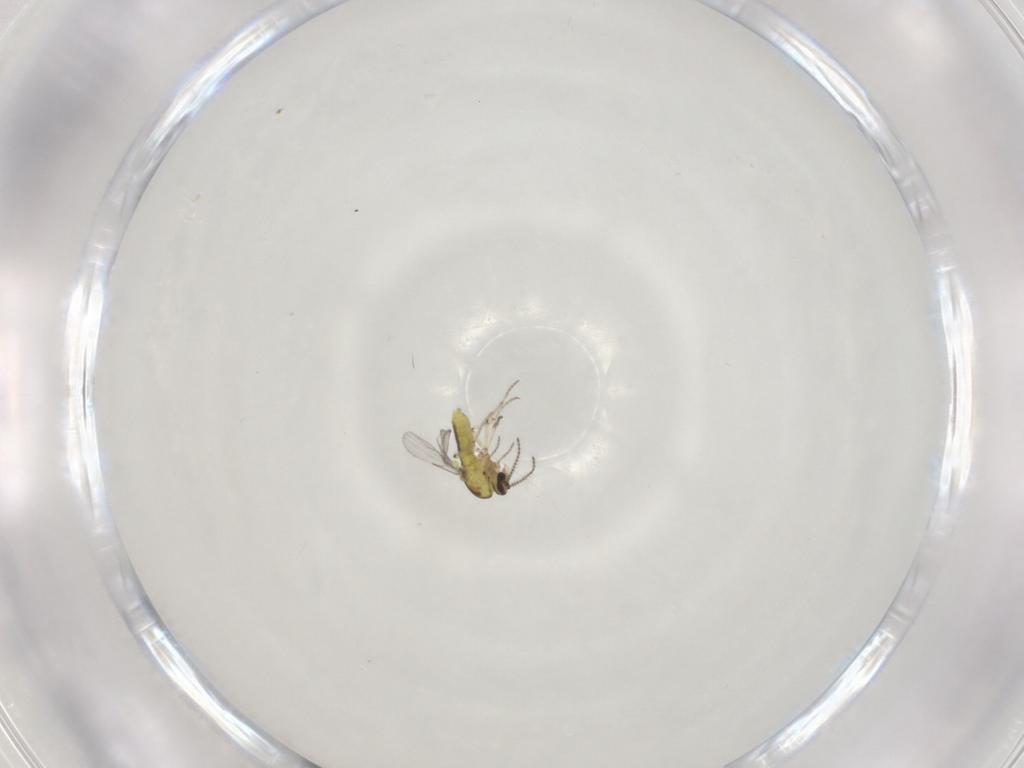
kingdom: Animalia
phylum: Arthropoda
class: Insecta
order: Diptera
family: Ceratopogonidae
